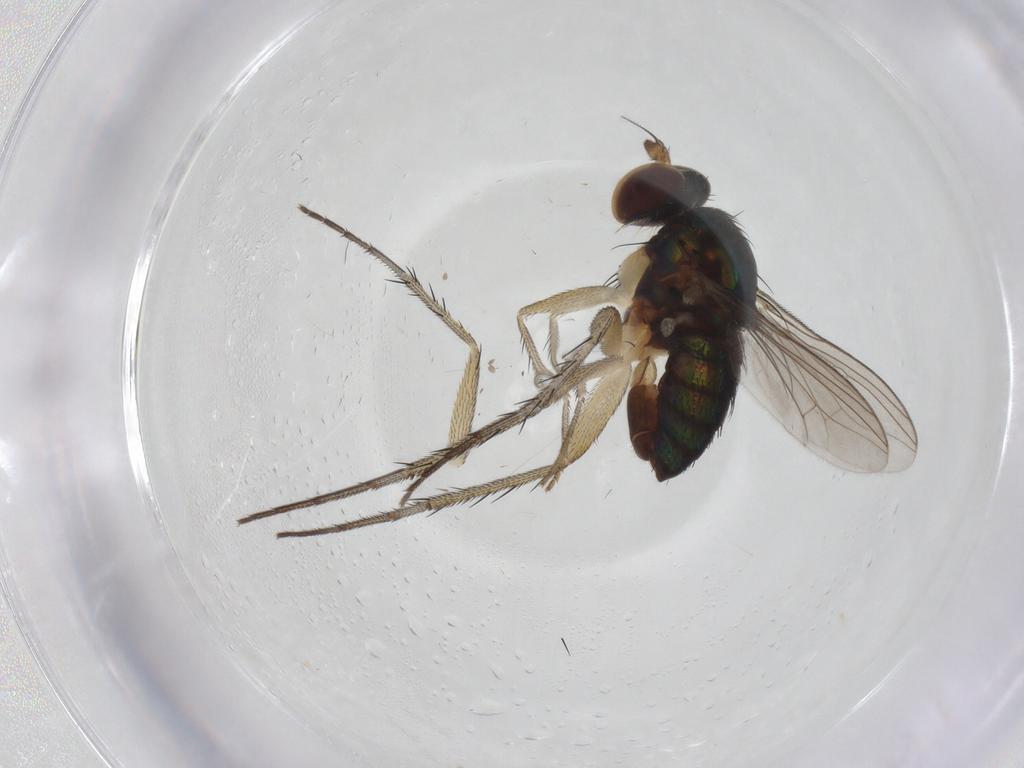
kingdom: Animalia
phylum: Arthropoda
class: Insecta
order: Diptera
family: Dolichopodidae
